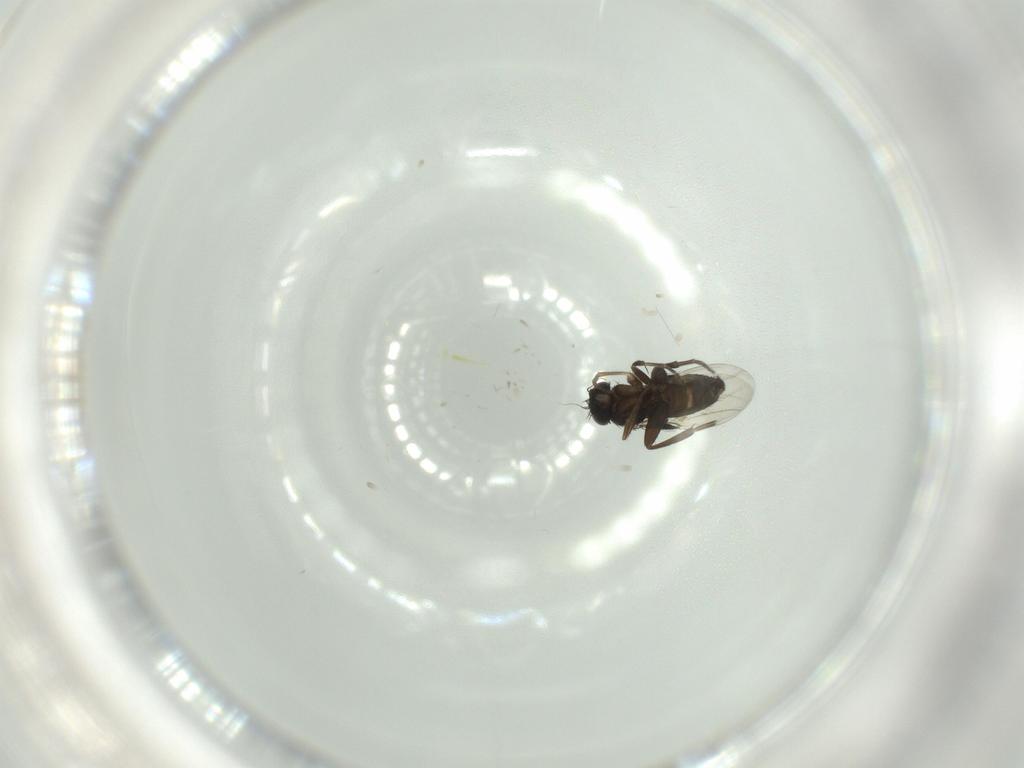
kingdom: Animalia
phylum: Arthropoda
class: Insecta
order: Diptera
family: Phoridae
